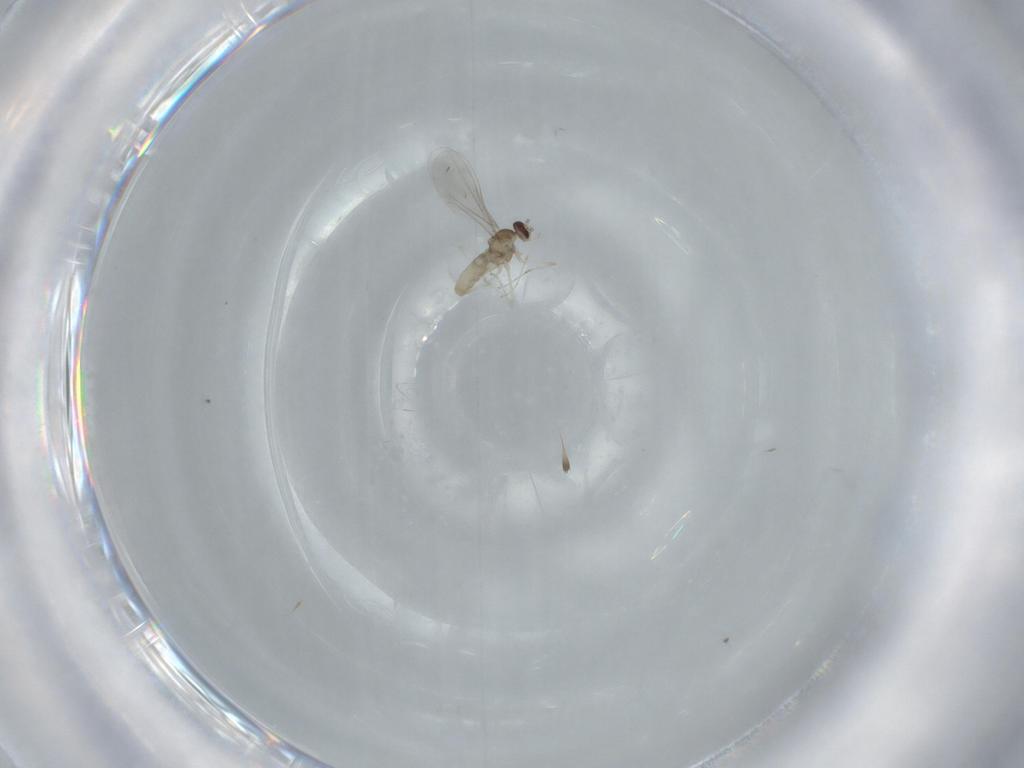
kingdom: Animalia
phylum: Arthropoda
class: Insecta
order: Diptera
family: Cecidomyiidae
